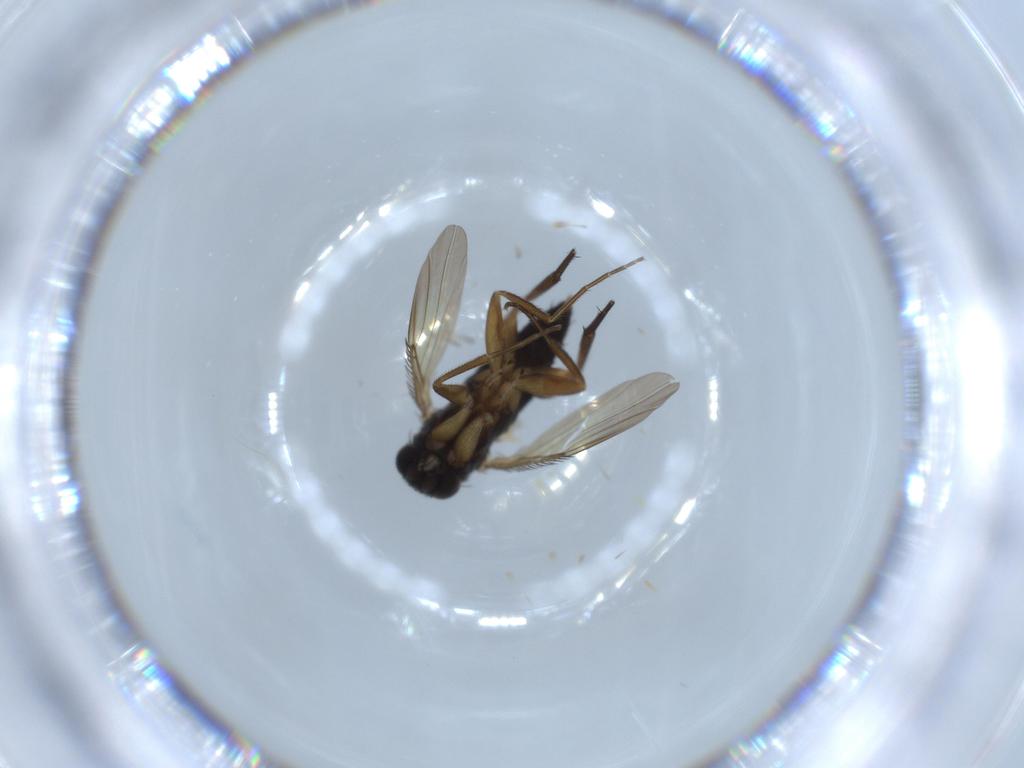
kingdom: Animalia
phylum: Arthropoda
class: Insecta
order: Diptera
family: Phoridae
